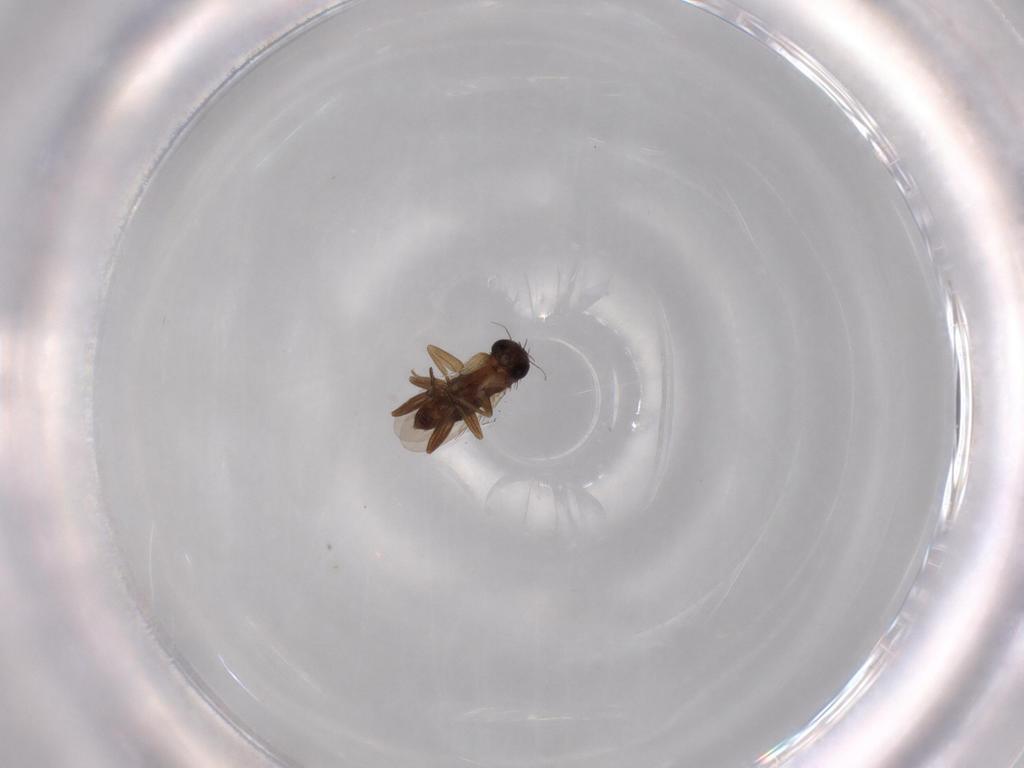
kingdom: Animalia
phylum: Arthropoda
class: Insecta
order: Diptera
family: Phoridae
